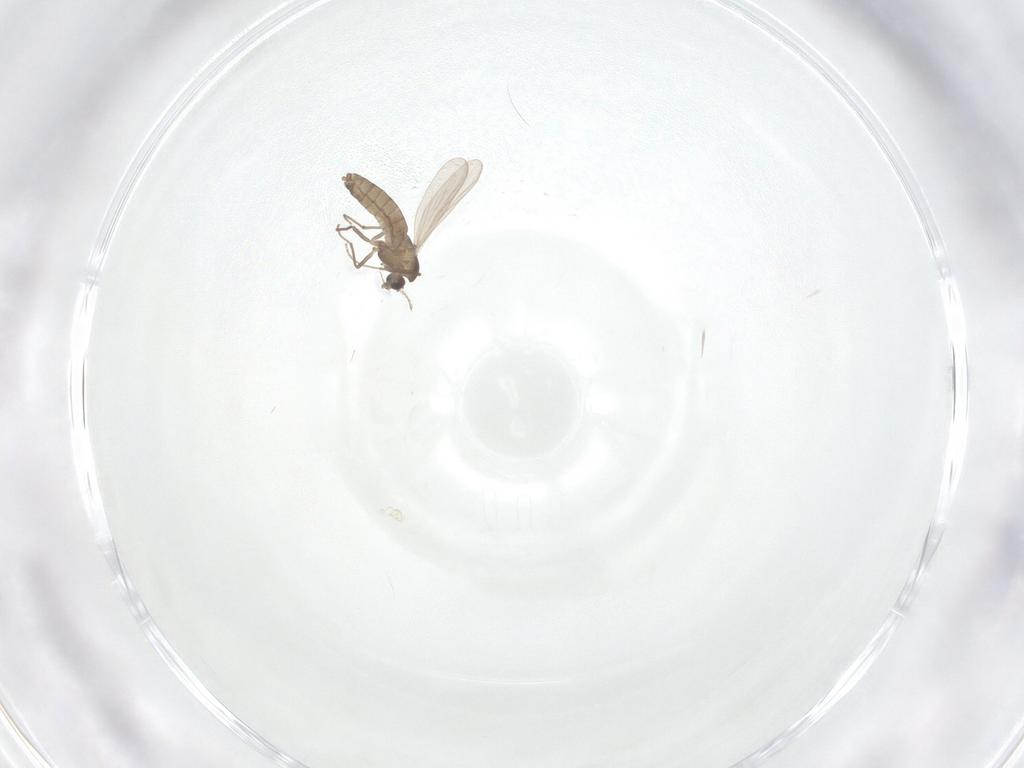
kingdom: Animalia
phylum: Arthropoda
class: Insecta
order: Diptera
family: Chironomidae
